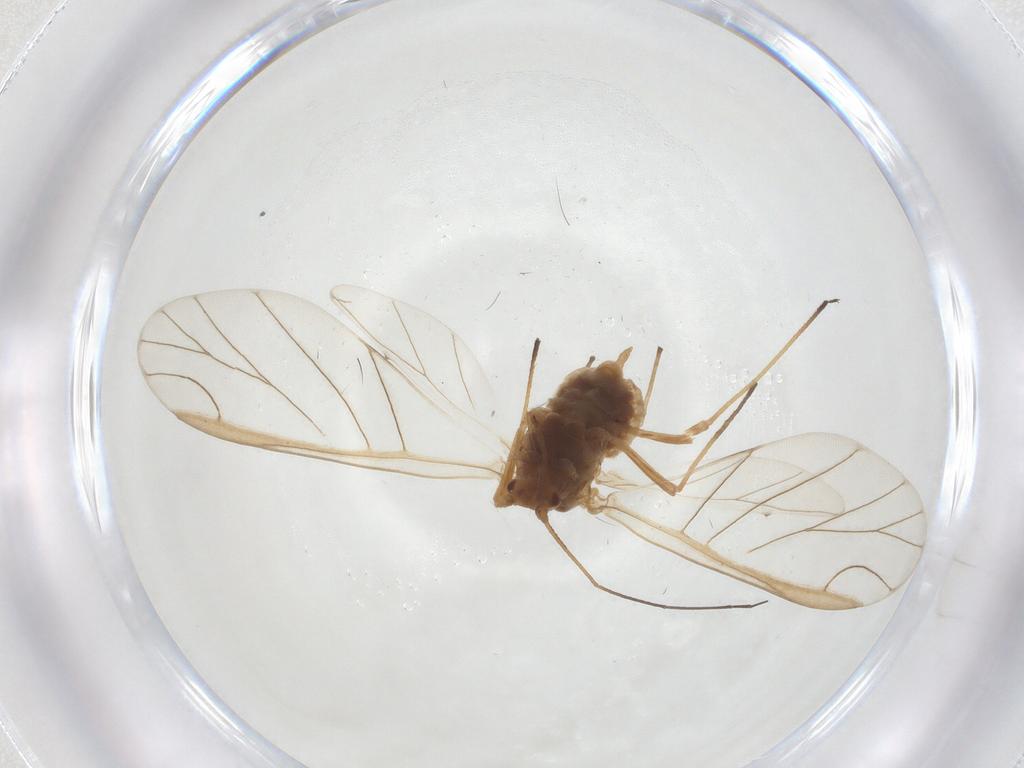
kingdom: Animalia
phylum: Arthropoda
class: Insecta
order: Hemiptera
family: Aphididae
